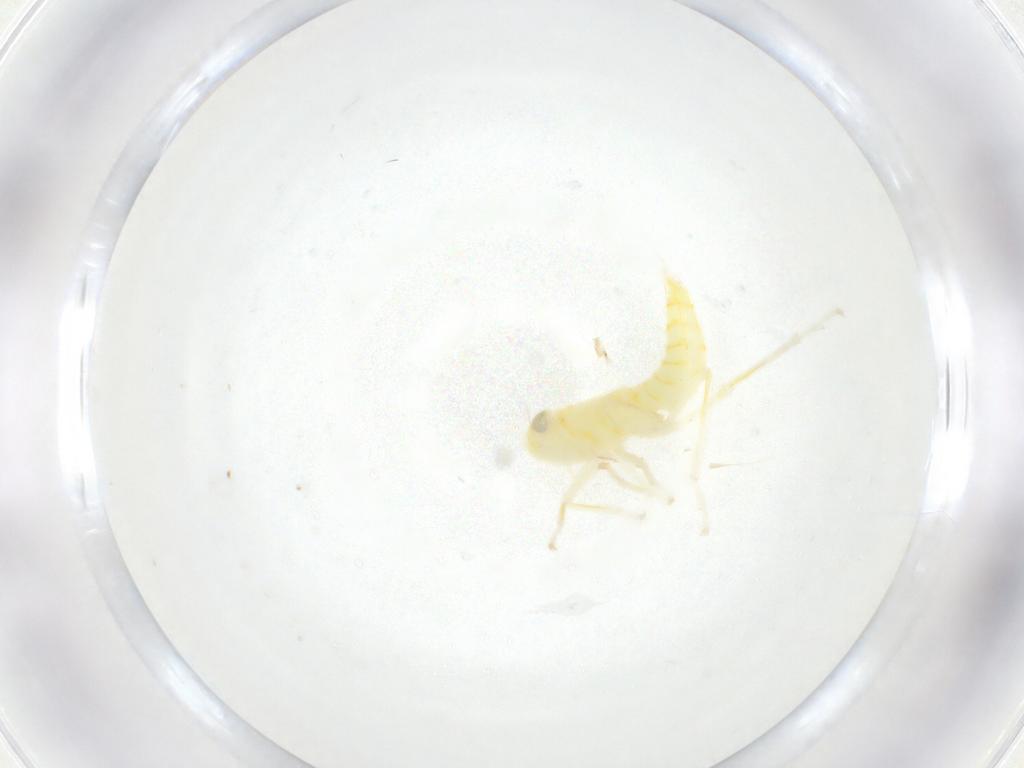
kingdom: Animalia
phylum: Arthropoda
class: Insecta
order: Hemiptera
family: Cicadellidae
